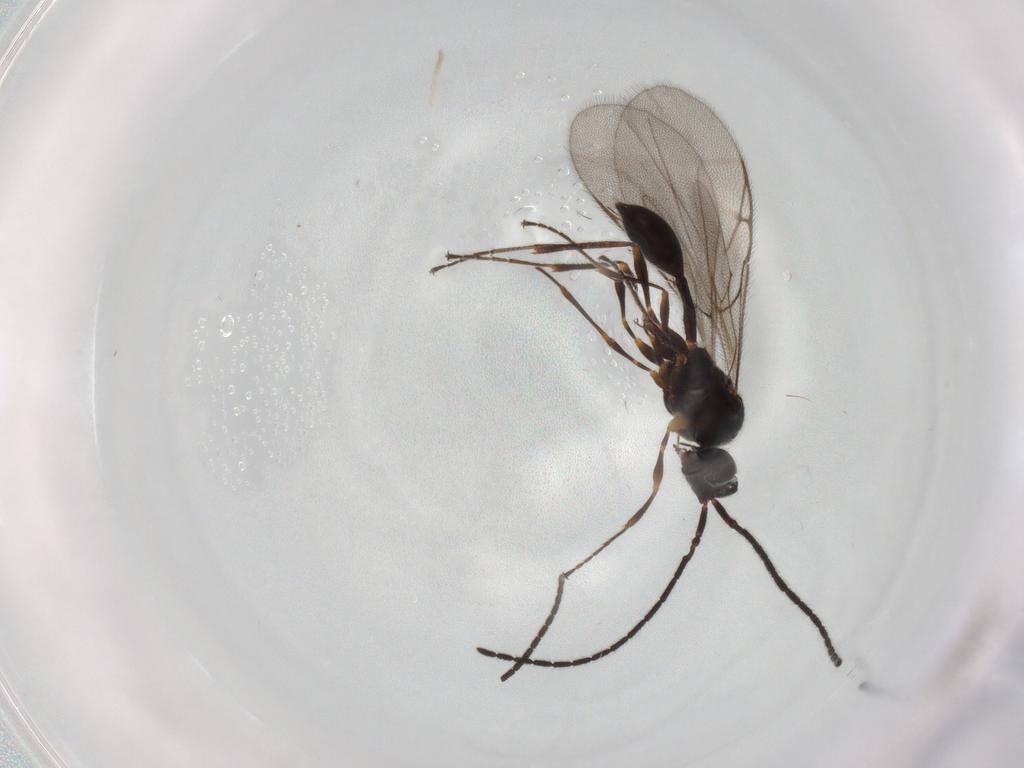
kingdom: Animalia
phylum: Arthropoda
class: Insecta
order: Hymenoptera
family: Diapriidae
